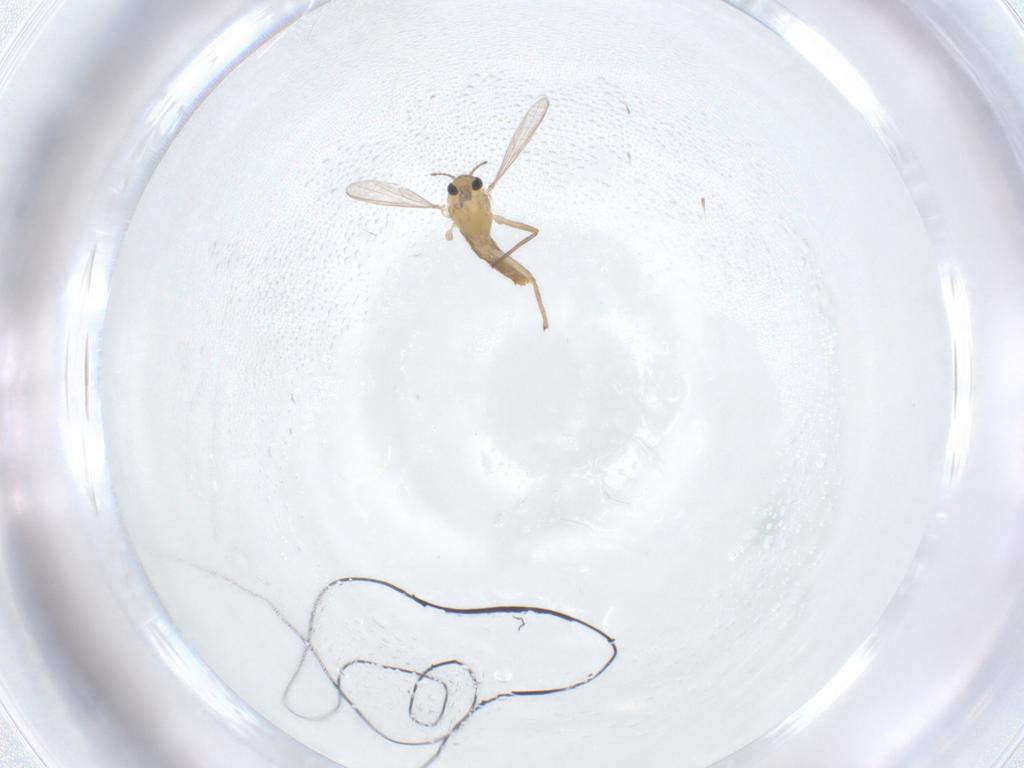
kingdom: Animalia
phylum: Arthropoda
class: Insecta
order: Diptera
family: Chironomidae
